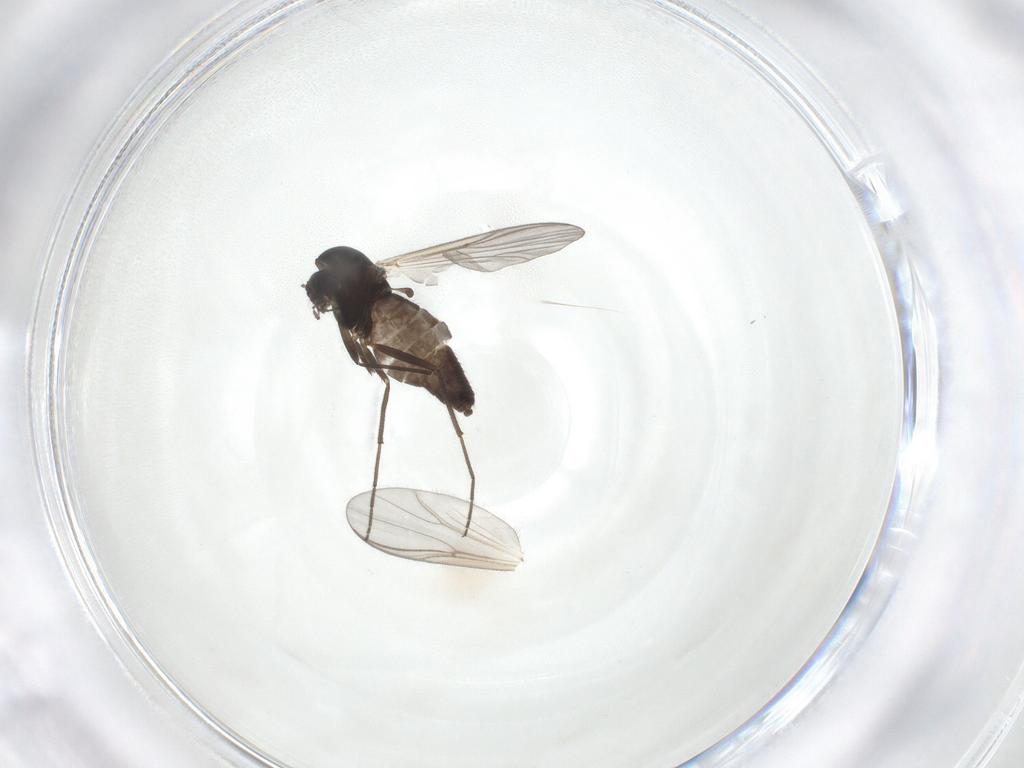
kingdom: Animalia
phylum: Arthropoda
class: Insecta
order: Diptera
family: Chironomidae
